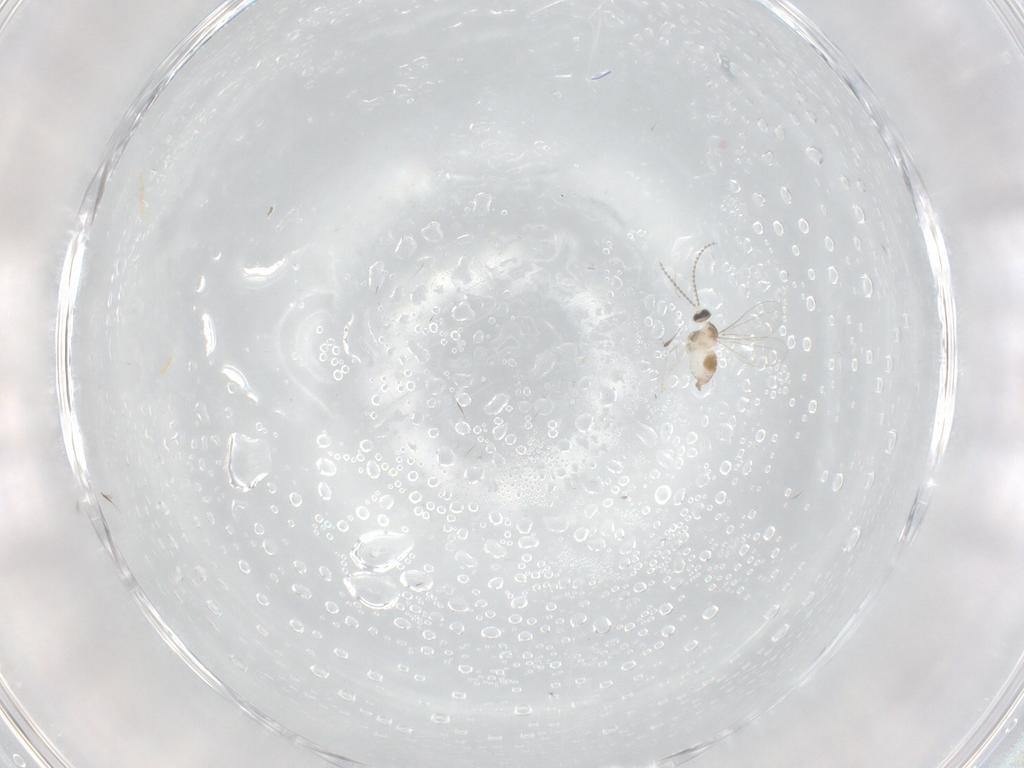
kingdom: Animalia
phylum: Arthropoda
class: Insecta
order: Diptera
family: Cecidomyiidae
